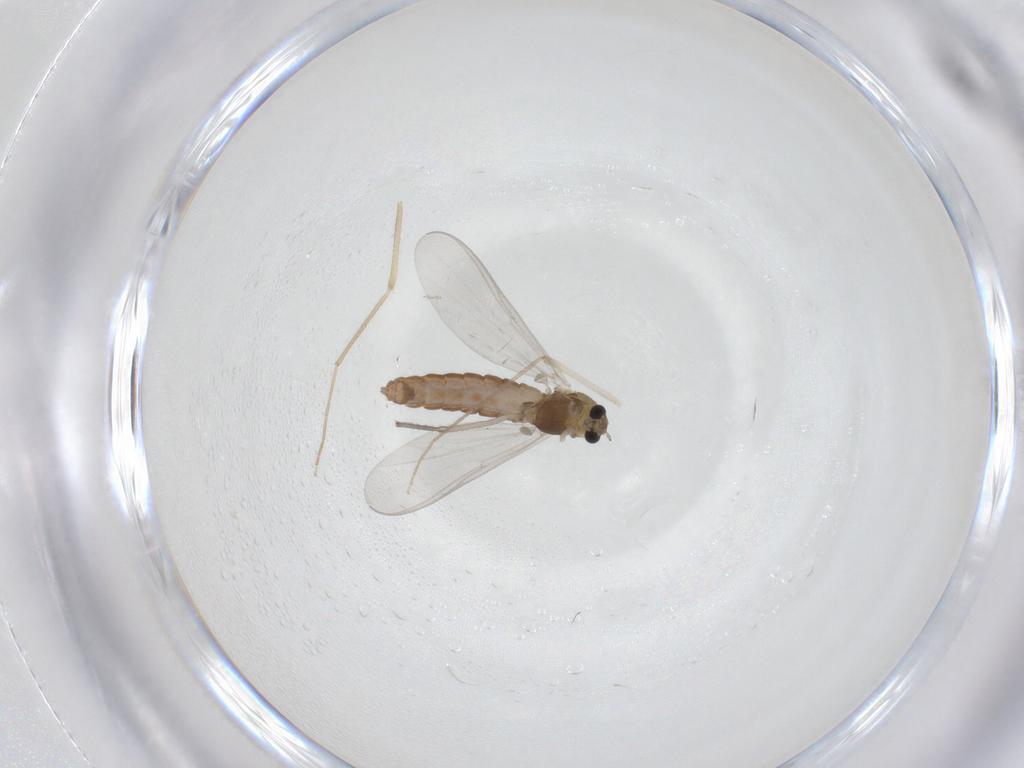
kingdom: Animalia
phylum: Arthropoda
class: Insecta
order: Diptera
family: Chironomidae
